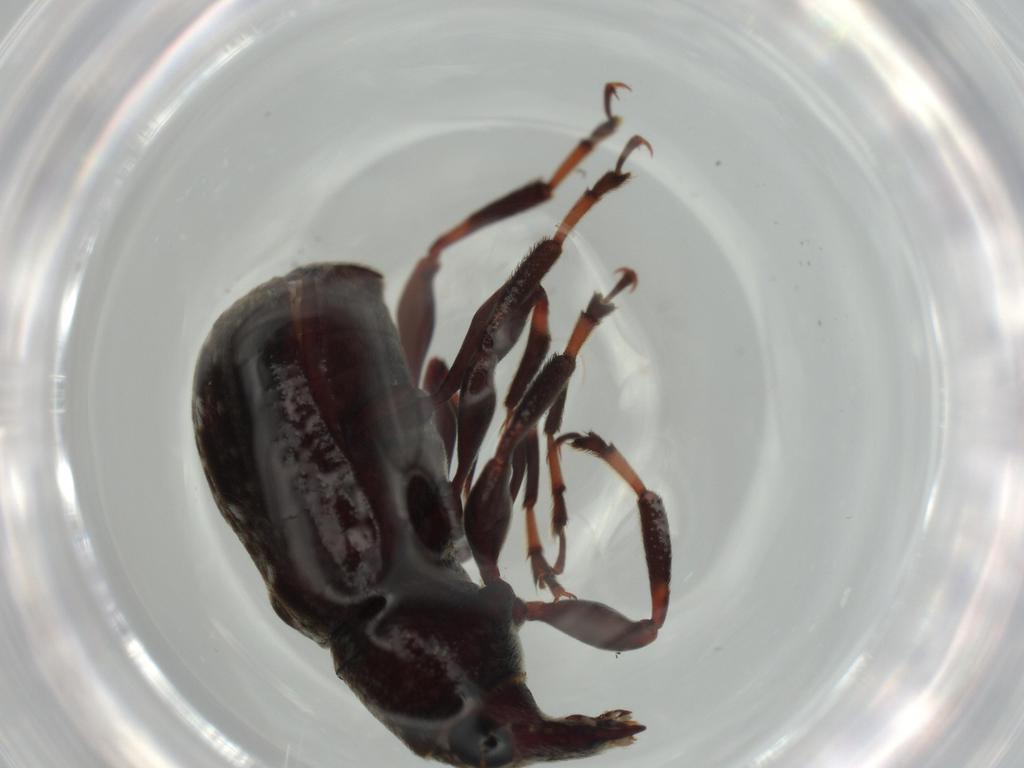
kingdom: Animalia
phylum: Arthropoda
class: Insecta
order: Coleoptera
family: Anthribidae
